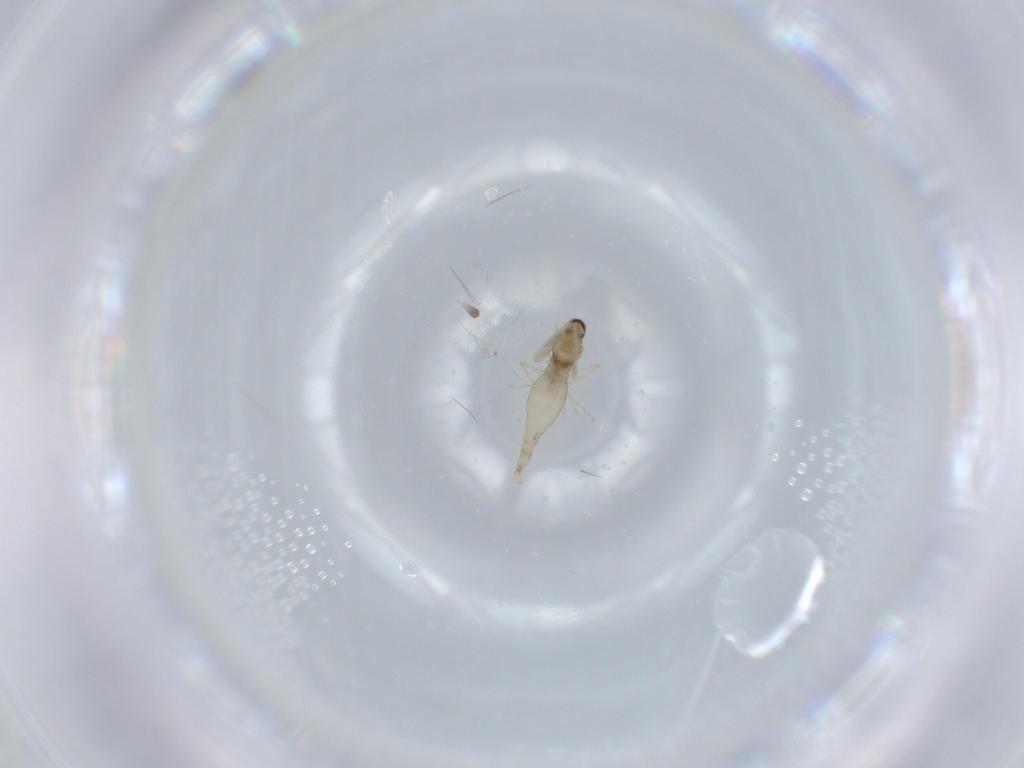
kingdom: Animalia
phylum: Arthropoda
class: Insecta
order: Diptera
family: Cecidomyiidae
